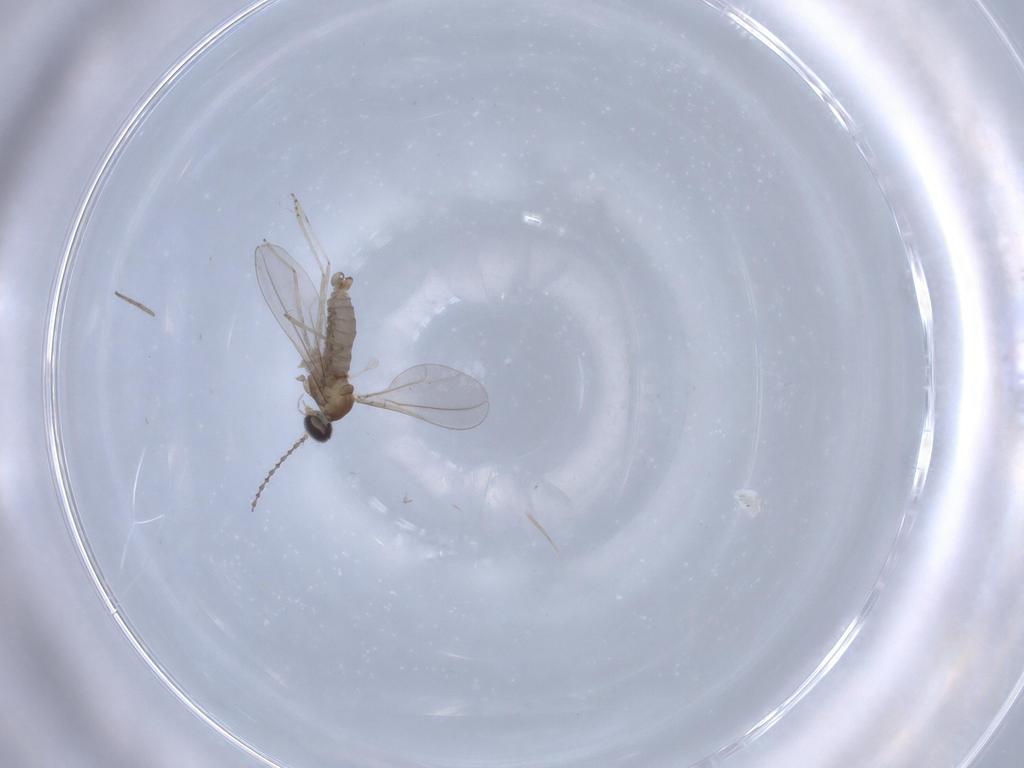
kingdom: Animalia
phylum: Arthropoda
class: Insecta
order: Diptera
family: Chironomidae
